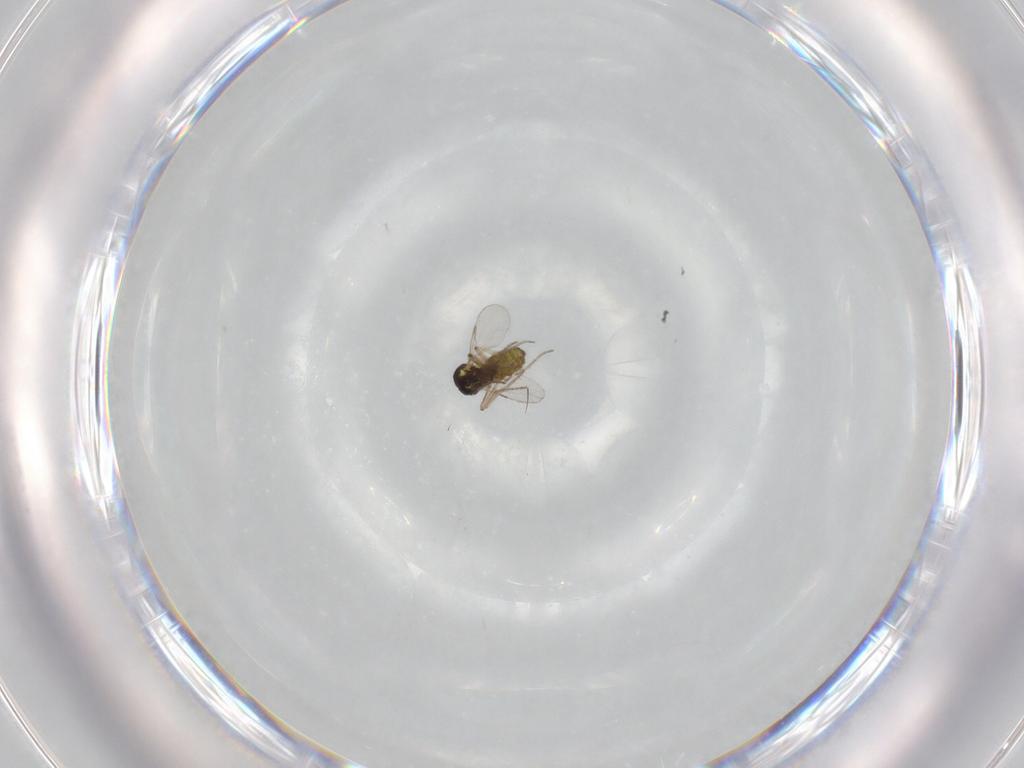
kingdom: Animalia
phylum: Arthropoda
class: Insecta
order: Diptera
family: Ceratopogonidae
